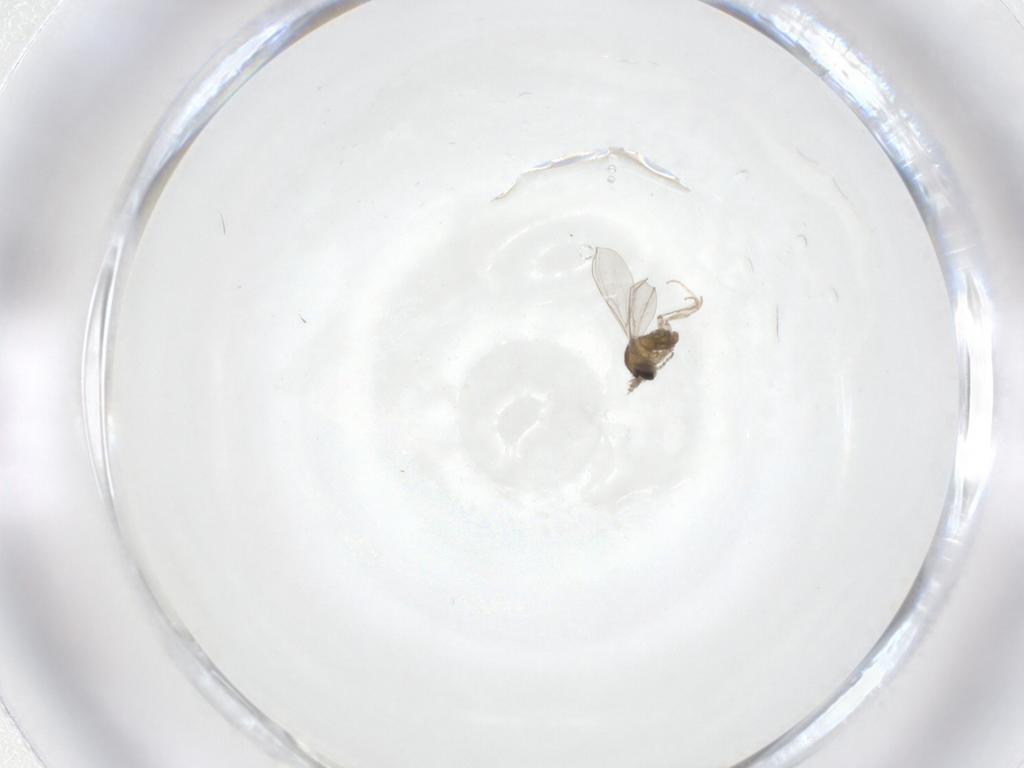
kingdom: Animalia
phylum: Arthropoda
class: Insecta
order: Diptera
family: Cecidomyiidae
